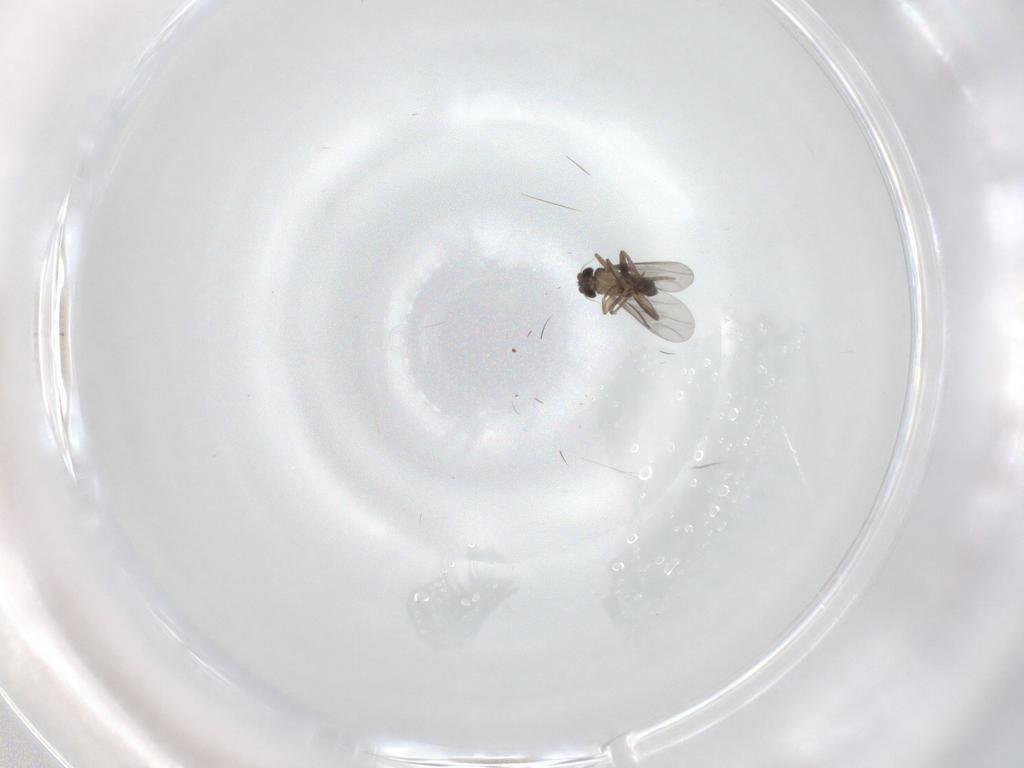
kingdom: Animalia
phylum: Arthropoda
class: Insecta
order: Diptera
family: Cecidomyiidae
